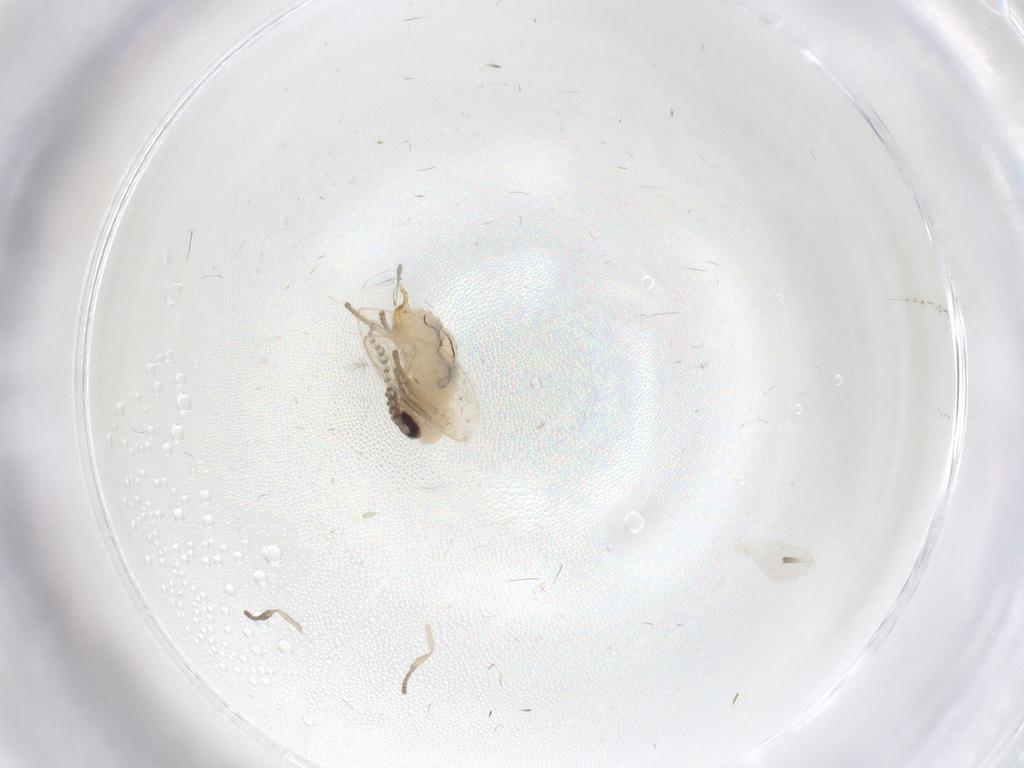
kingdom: Animalia
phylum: Arthropoda
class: Insecta
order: Diptera
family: Psychodidae
